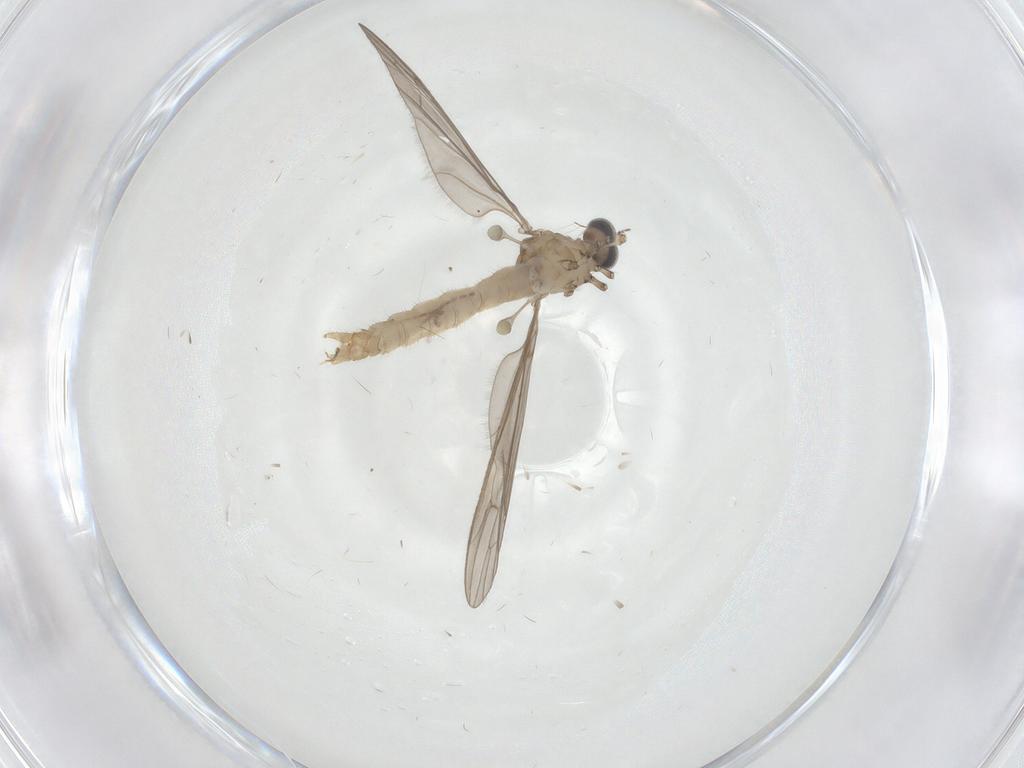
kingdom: Animalia
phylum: Arthropoda
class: Insecta
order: Diptera
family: Limoniidae
